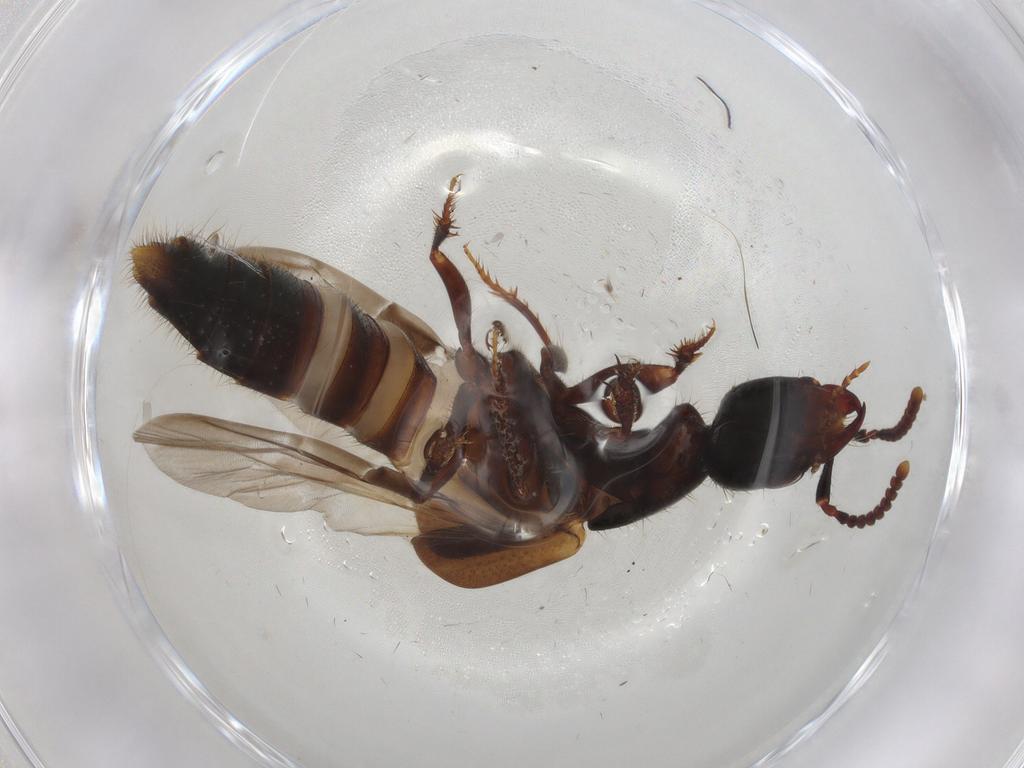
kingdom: Animalia
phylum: Arthropoda
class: Insecta
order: Coleoptera
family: Staphylinidae
